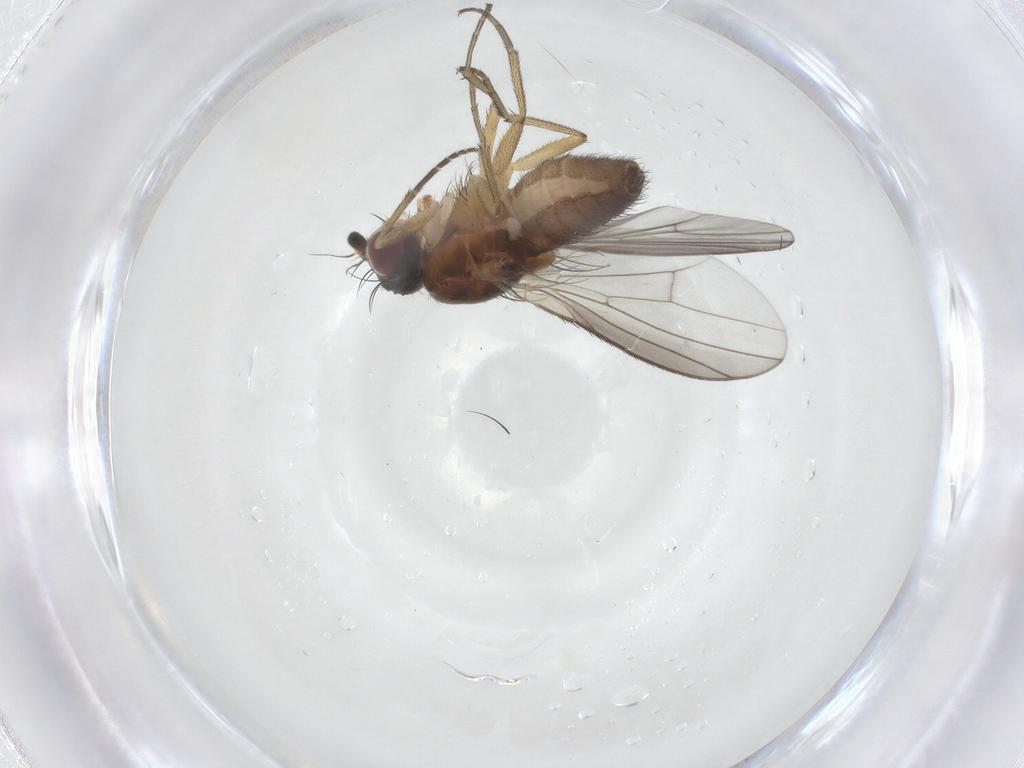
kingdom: Animalia
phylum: Arthropoda
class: Insecta
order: Diptera
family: Heleomyzidae
